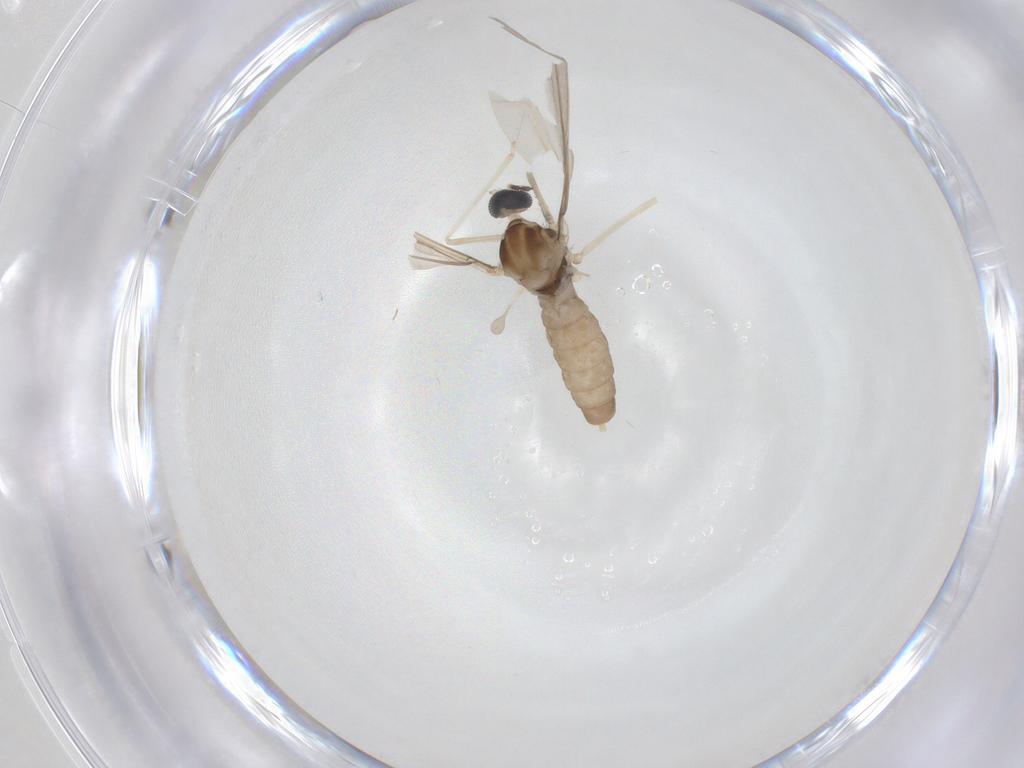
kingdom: Animalia
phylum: Arthropoda
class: Insecta
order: Diptera
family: Cecidomyiidae
